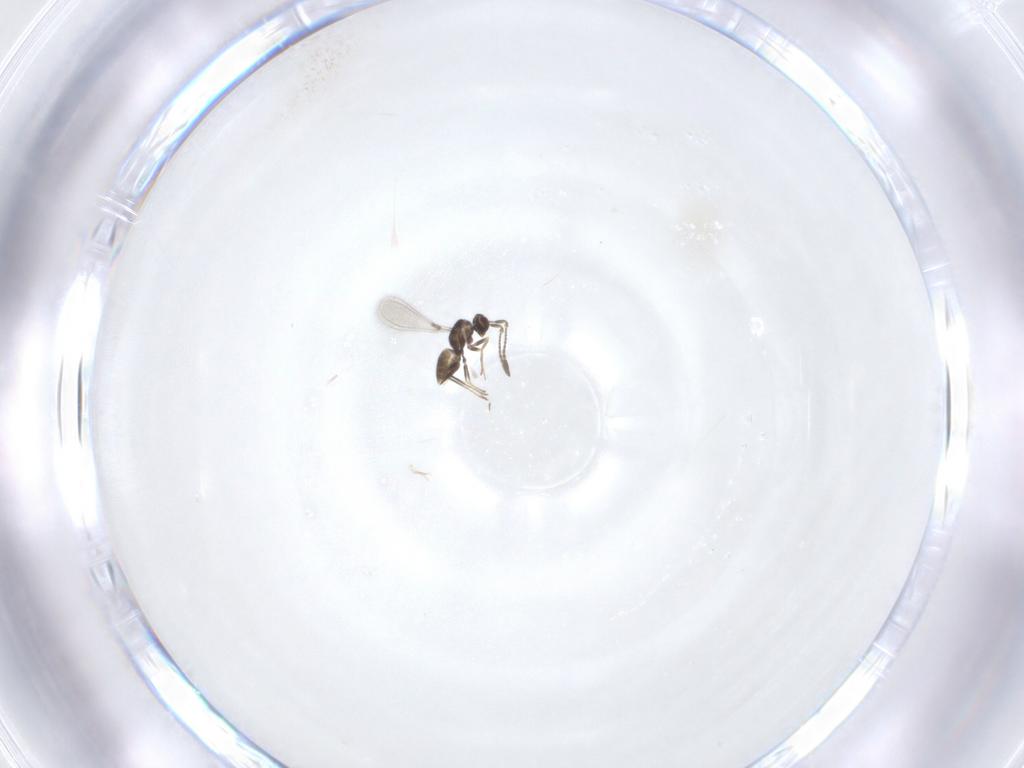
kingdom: Animalia
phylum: Arthropoda
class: Insecta
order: Hymenoptera
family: Mymaridae
